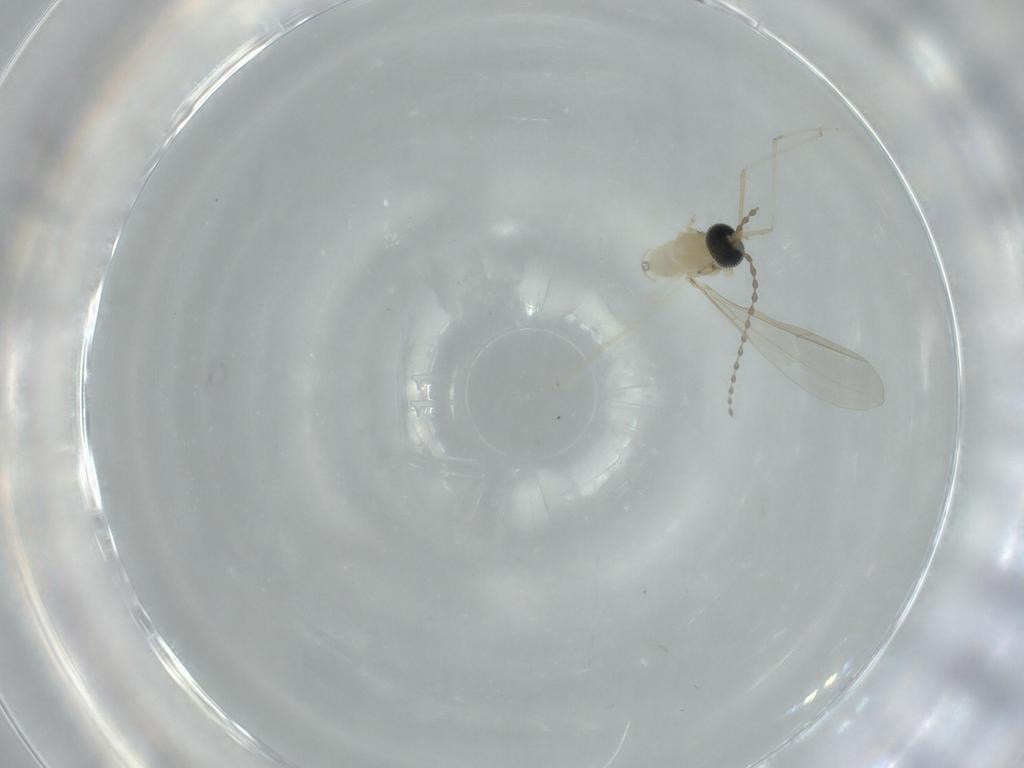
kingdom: Animalia
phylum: Arthropoda
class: Insecta
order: Diptera
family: Cecidomyiidae
